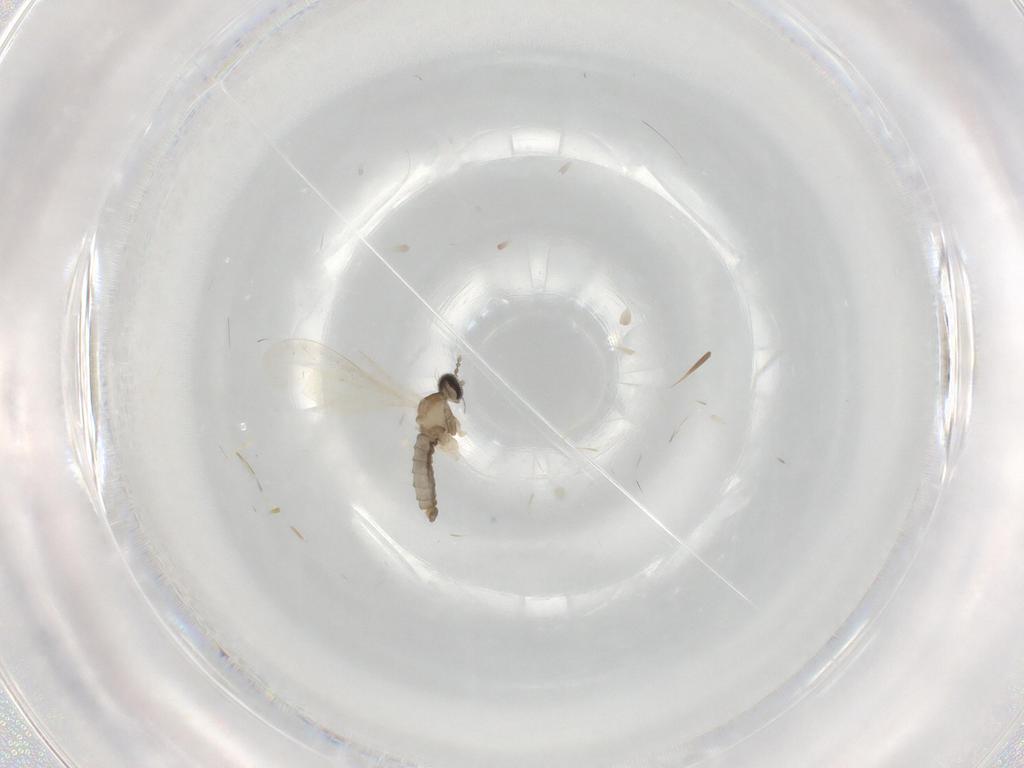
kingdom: Animalia
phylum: Arthropoda
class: Insecta
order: Diptera
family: Cecidomyiidae
